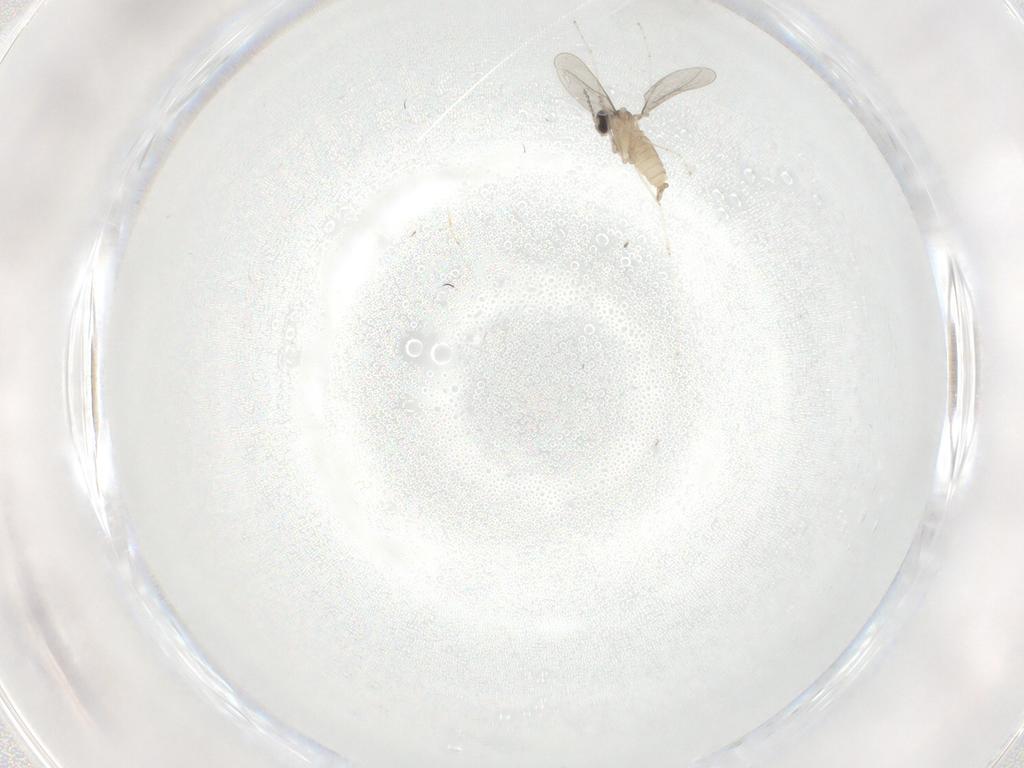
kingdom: Animalia
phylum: Arthropoda
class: Insecta
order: Diptera
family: Cecidomyiidae
